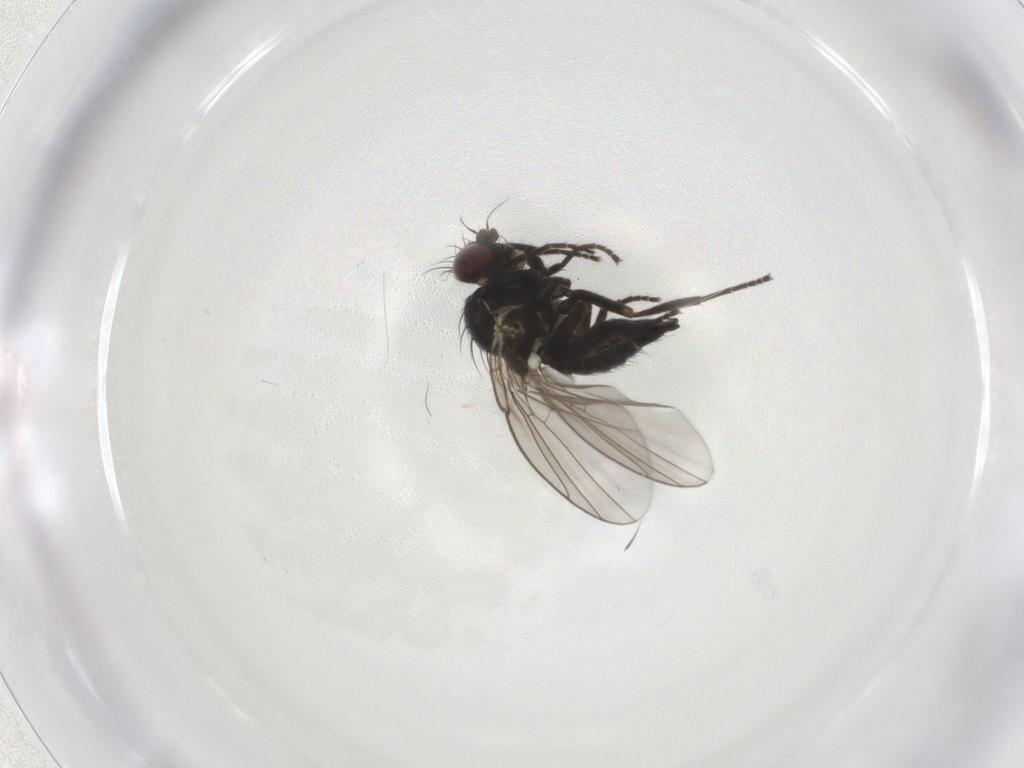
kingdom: Animalia
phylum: Arthropoda
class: Insecta
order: Diptera
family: Agromyzidae
